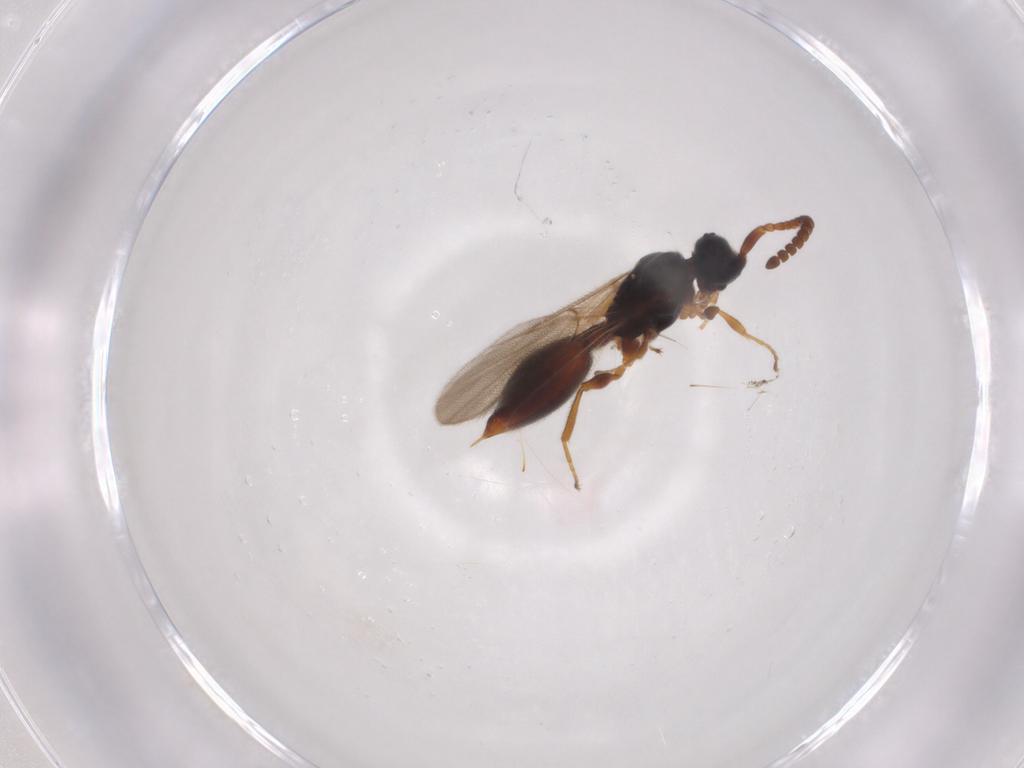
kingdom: Animalia
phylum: Arthropoda
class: Insecta
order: Hymenoptera
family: Diapriidae
